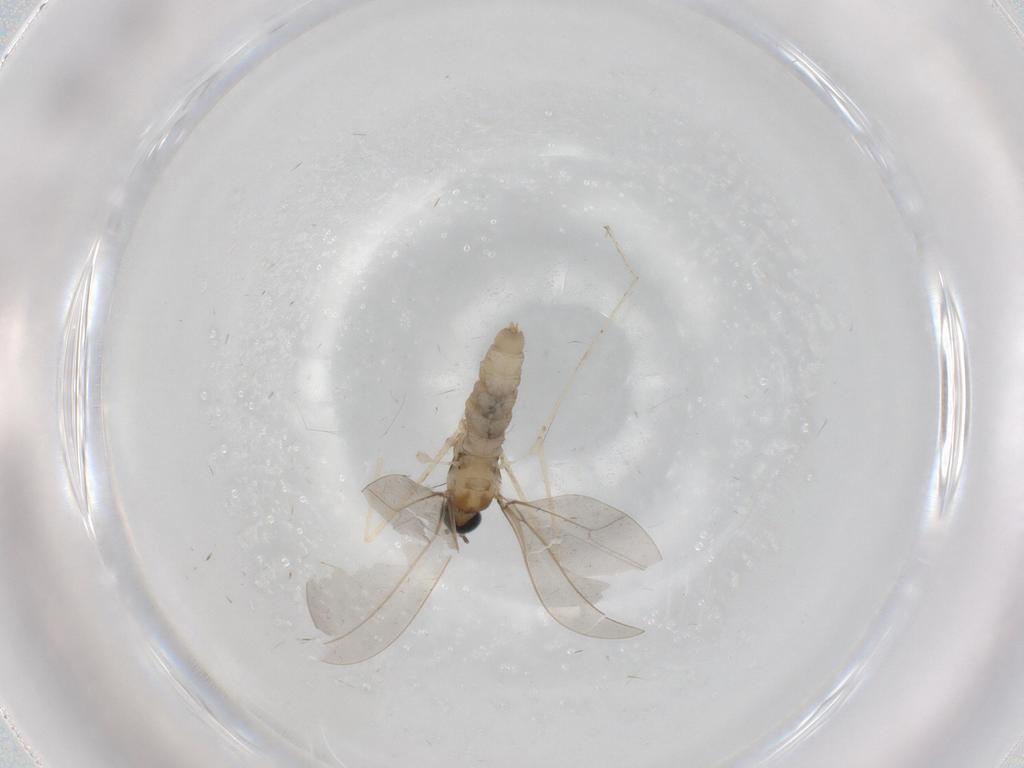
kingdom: Animalia
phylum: Arthropoda
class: Insecta
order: Diptera
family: Cecidomyiidae
